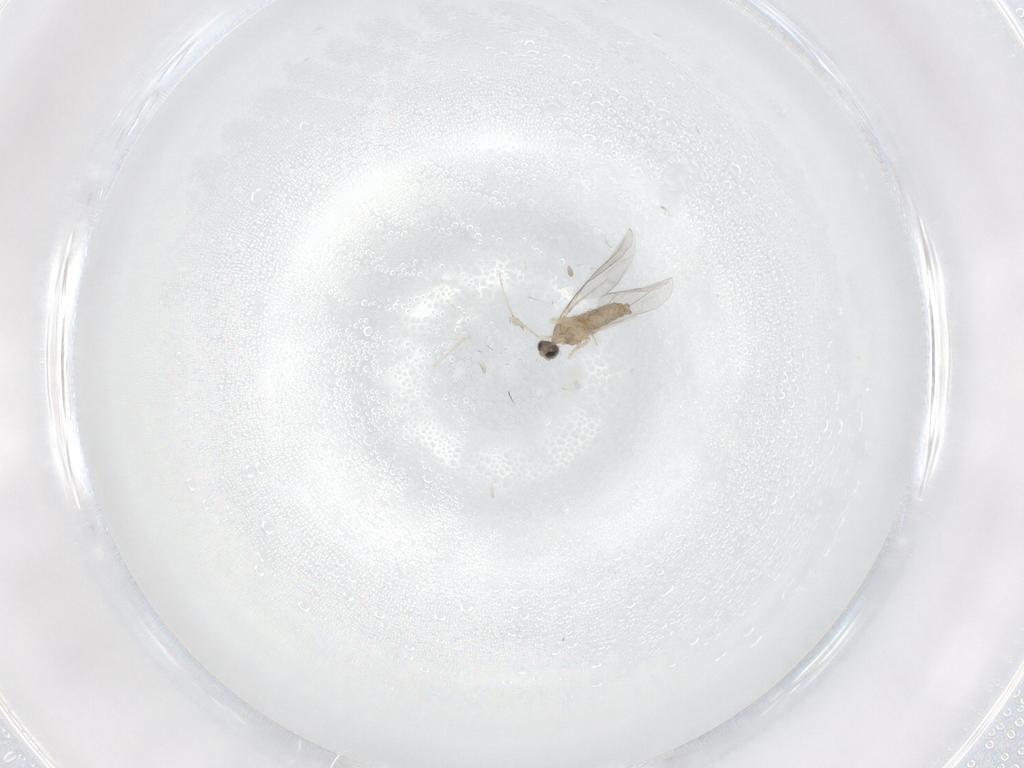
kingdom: Animalia
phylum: Arthropoda
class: Insecta
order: Diptera
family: Cecidomyiidae
